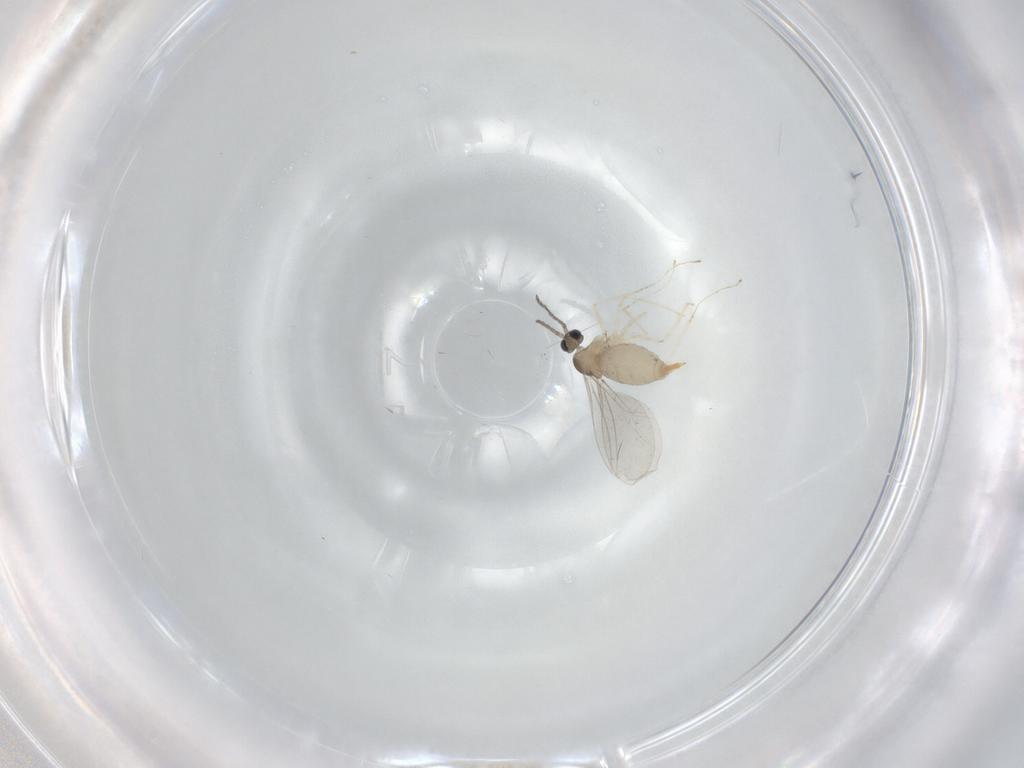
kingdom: Animalia
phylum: Arthropoda
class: Insecta
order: Diptera
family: Cecidomyiidae
